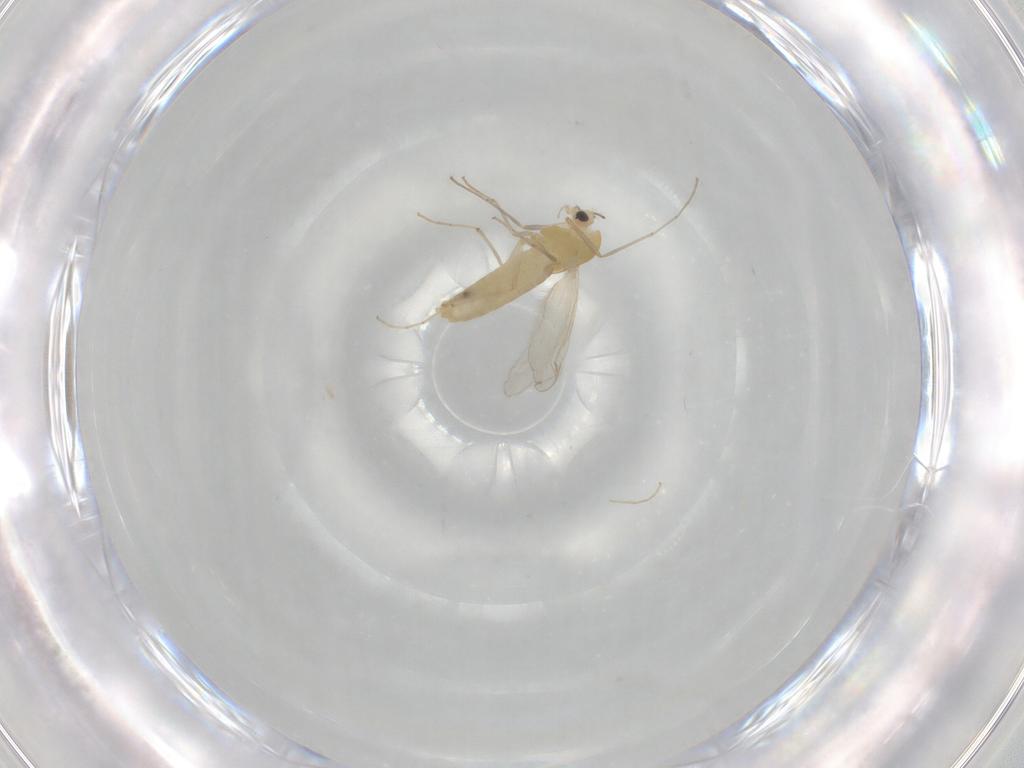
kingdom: Animalia
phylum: Arthropoda
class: Insecta
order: Diptera
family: Chironomidae
